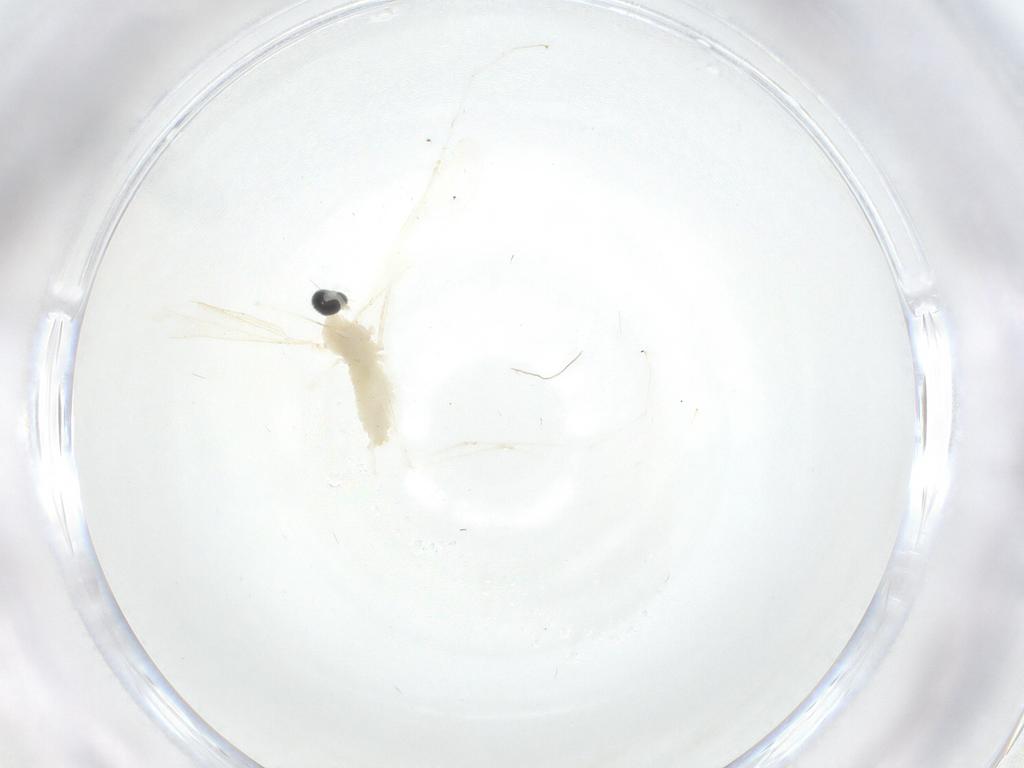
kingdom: Animalia
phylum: Arthropoda
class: Insecta
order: Diptera
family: Cecidomyiidae
